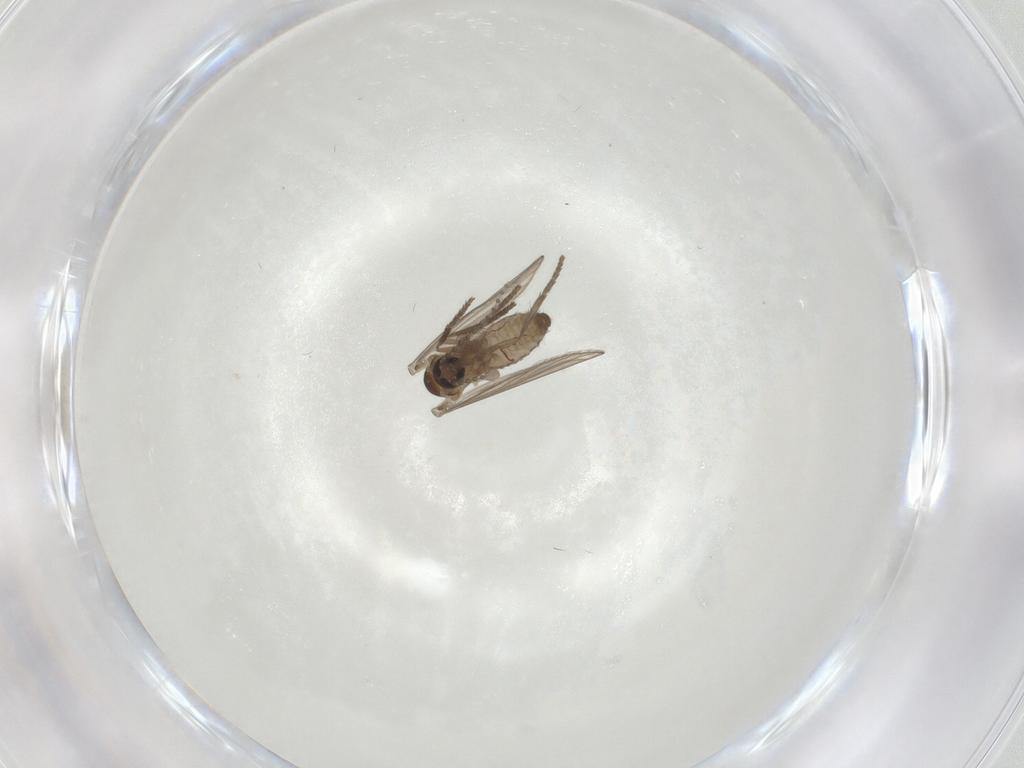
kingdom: Animalia
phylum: Arthropoda
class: Insecta
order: Diptera
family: Psychodidae
